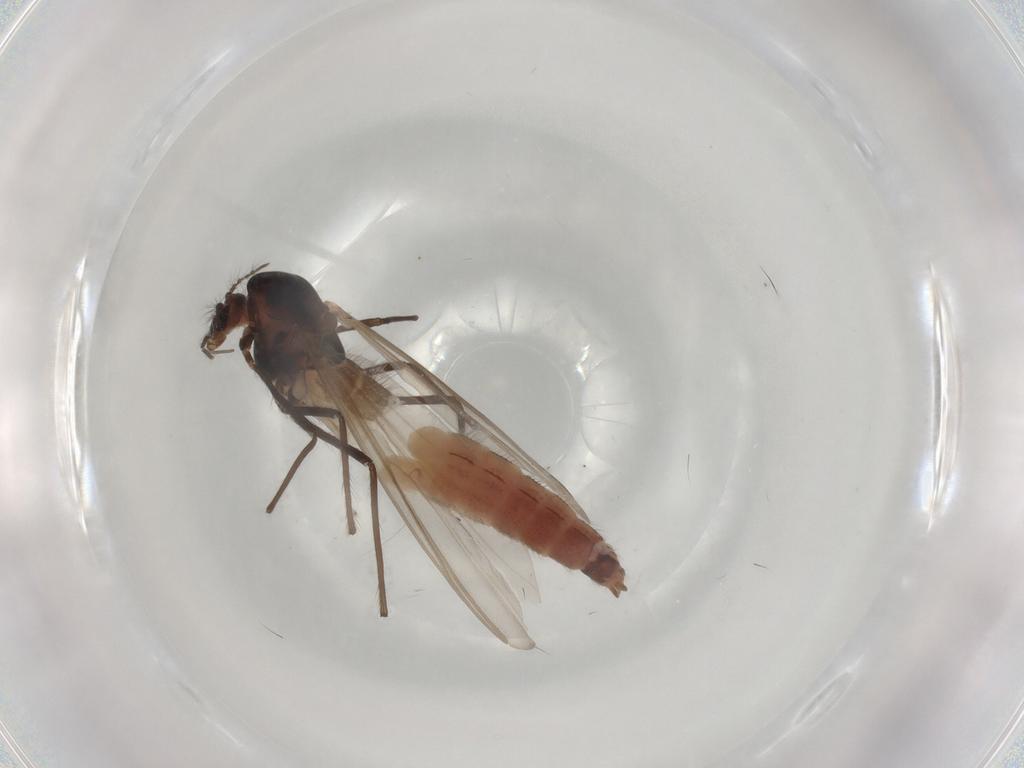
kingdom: Animalia
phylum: Arthropoda
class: Insecta
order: Diptera
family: Chironomidae
